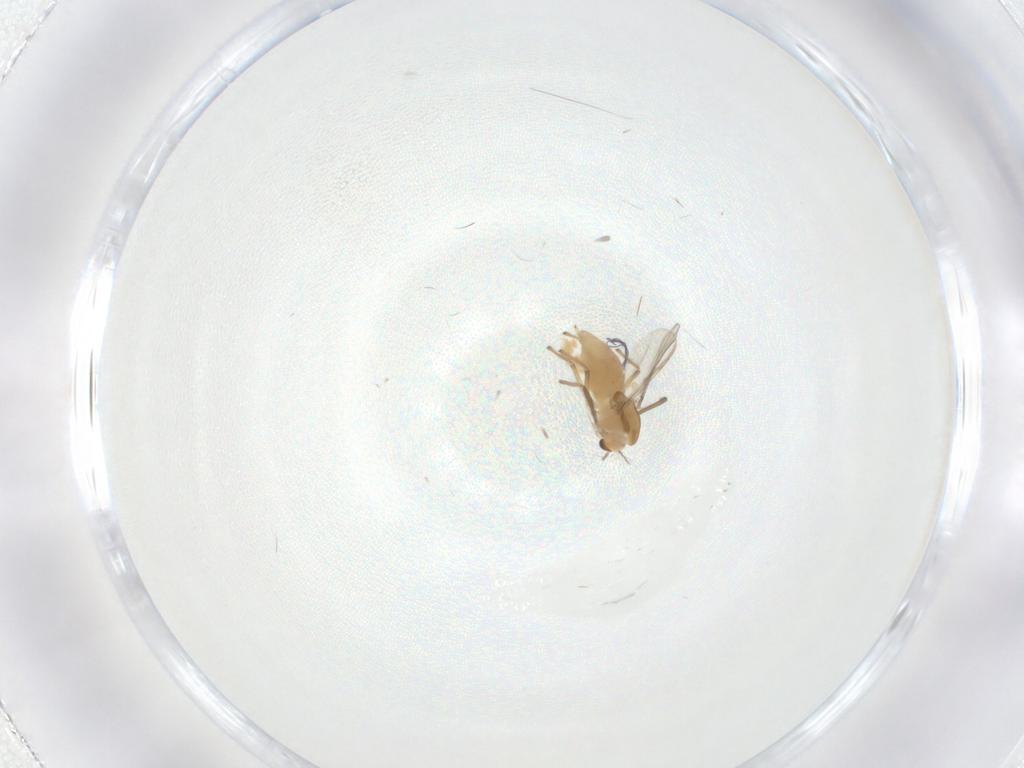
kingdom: Animalia
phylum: Arthropoda
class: Insecta
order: Diptera
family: Chironomidae
